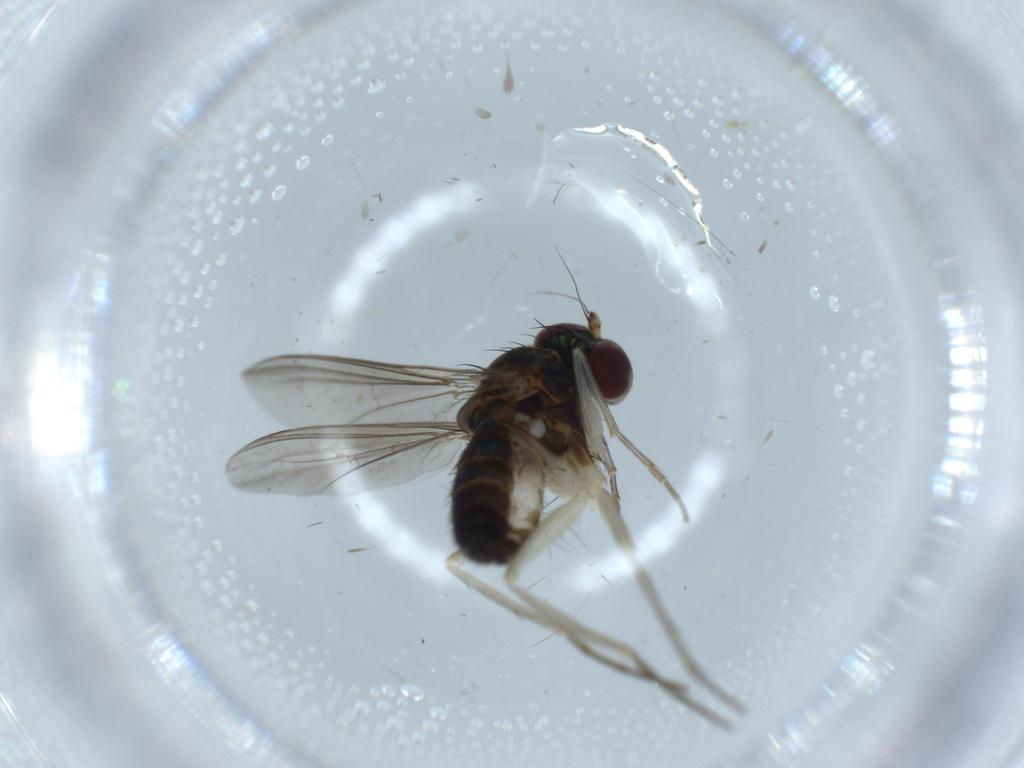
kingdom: Animalia
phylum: Arthropoda
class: Insecta
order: Diptera
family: Dolichopodidae
